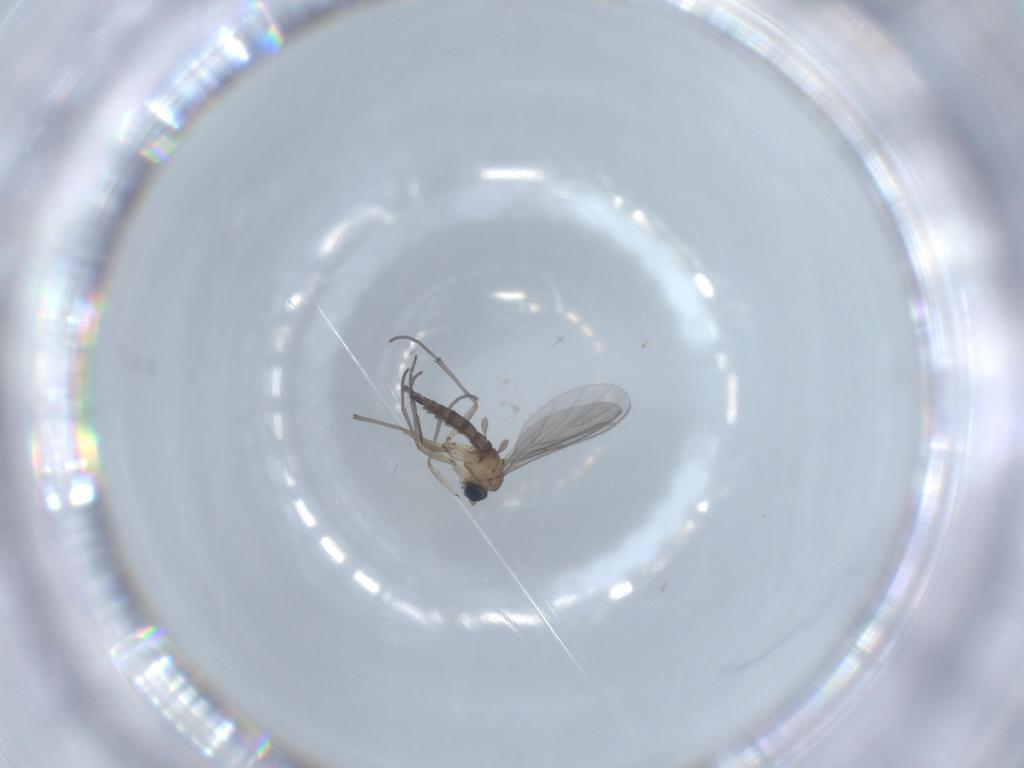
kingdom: Animalia
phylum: Arthropoda
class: Insecta
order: Diptera
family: Sciaridae
